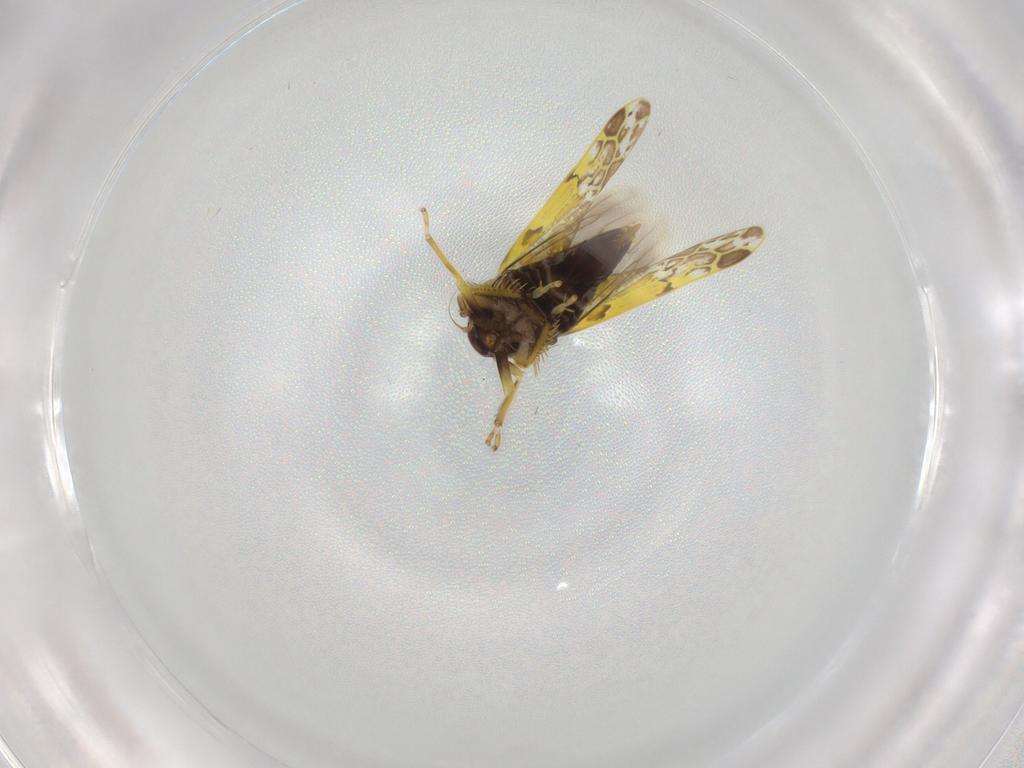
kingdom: Animalia
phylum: Arthropoda
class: Insecta
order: Hemiptera
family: Cicadellidae
